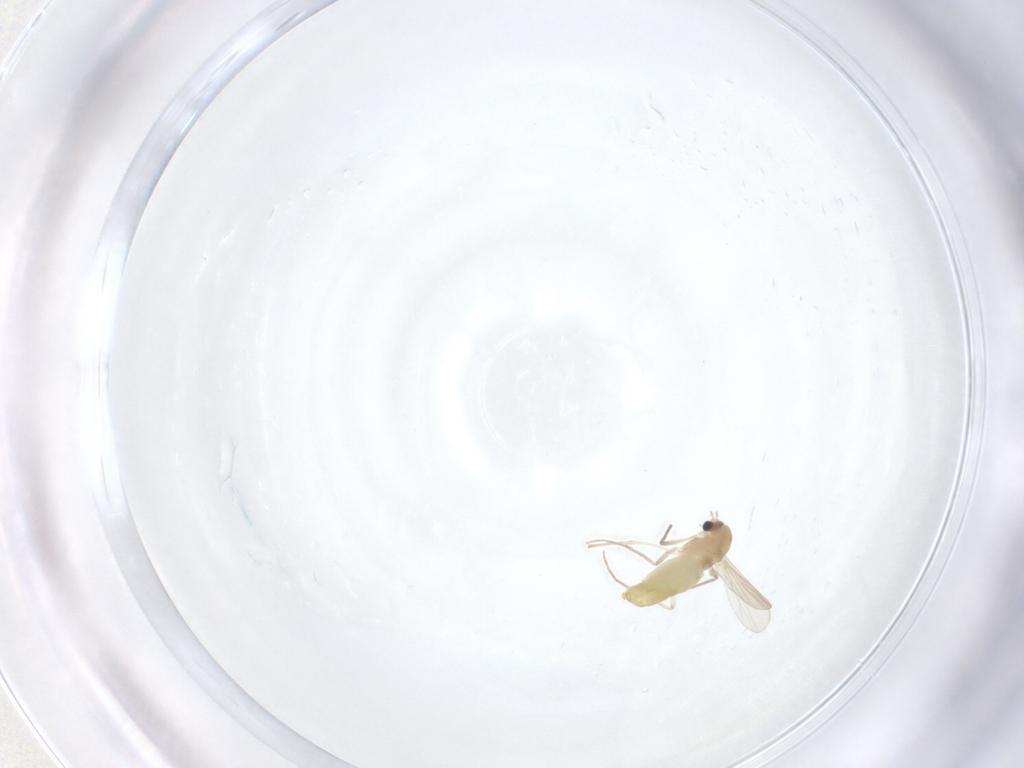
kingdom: Animalia
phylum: Arthropoda
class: Insecta
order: Diptera
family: Chironomidae
